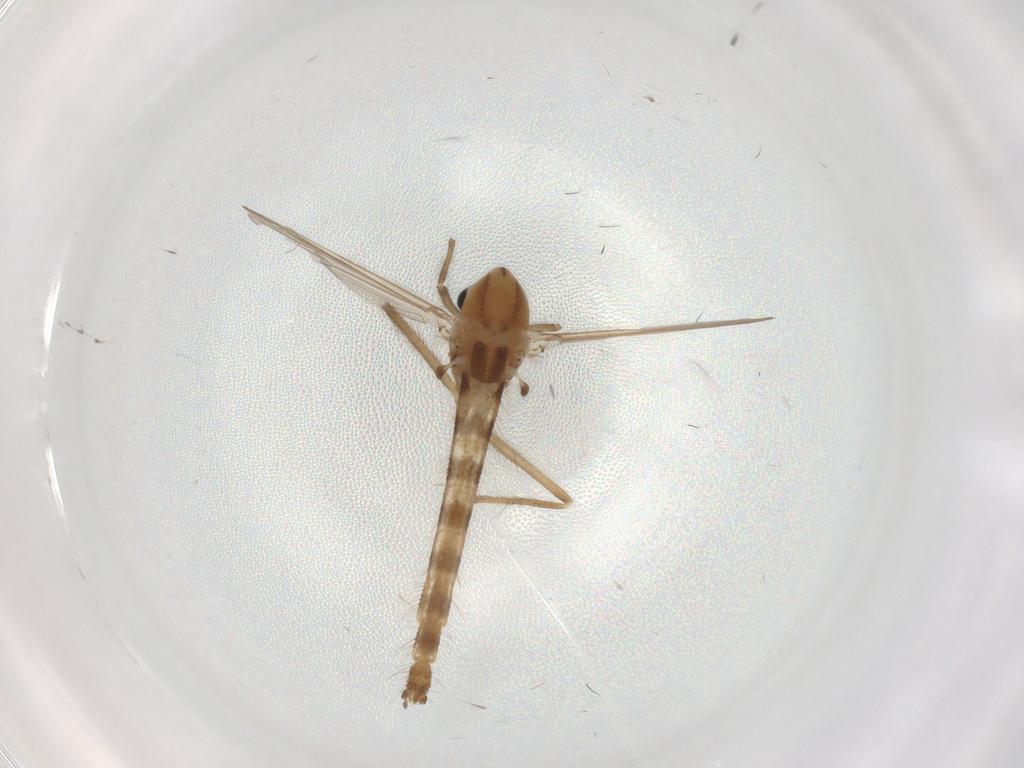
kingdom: Animalia
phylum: Arthropoda
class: Insecta
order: Diptera
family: Chironomidae
